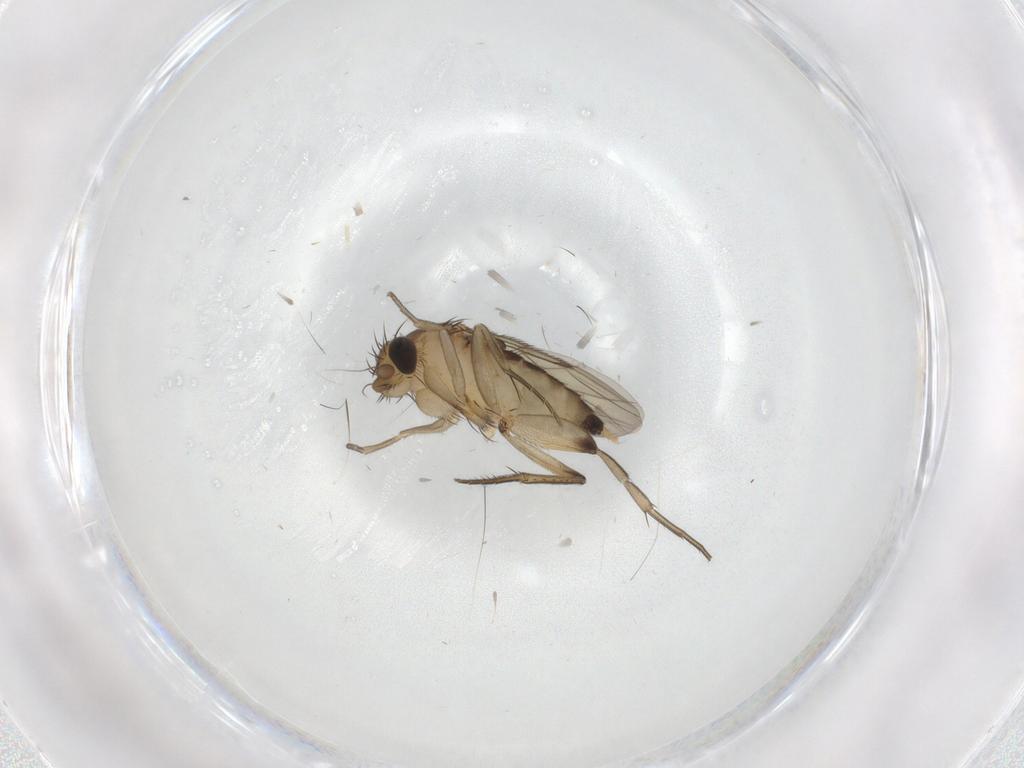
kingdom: Animalia
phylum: Arthropoda
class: Insecta
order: Diptera
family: Phoridae
